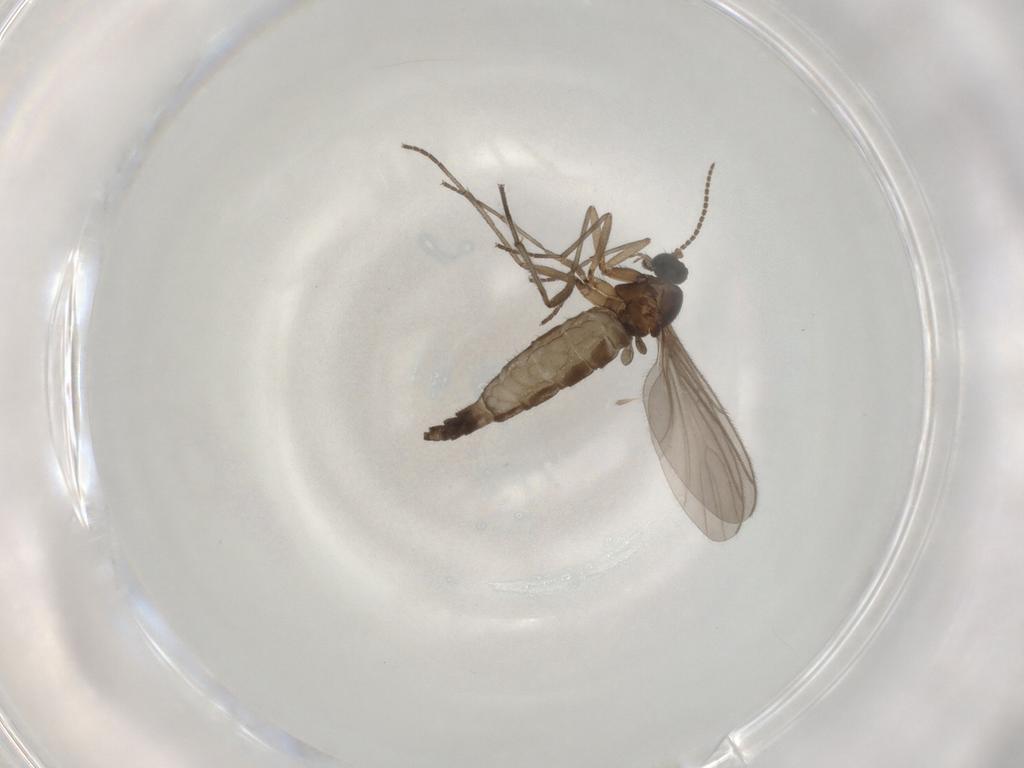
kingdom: Animalia
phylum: Arthropoda
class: Insecta
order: Diptera
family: Sciaridae
